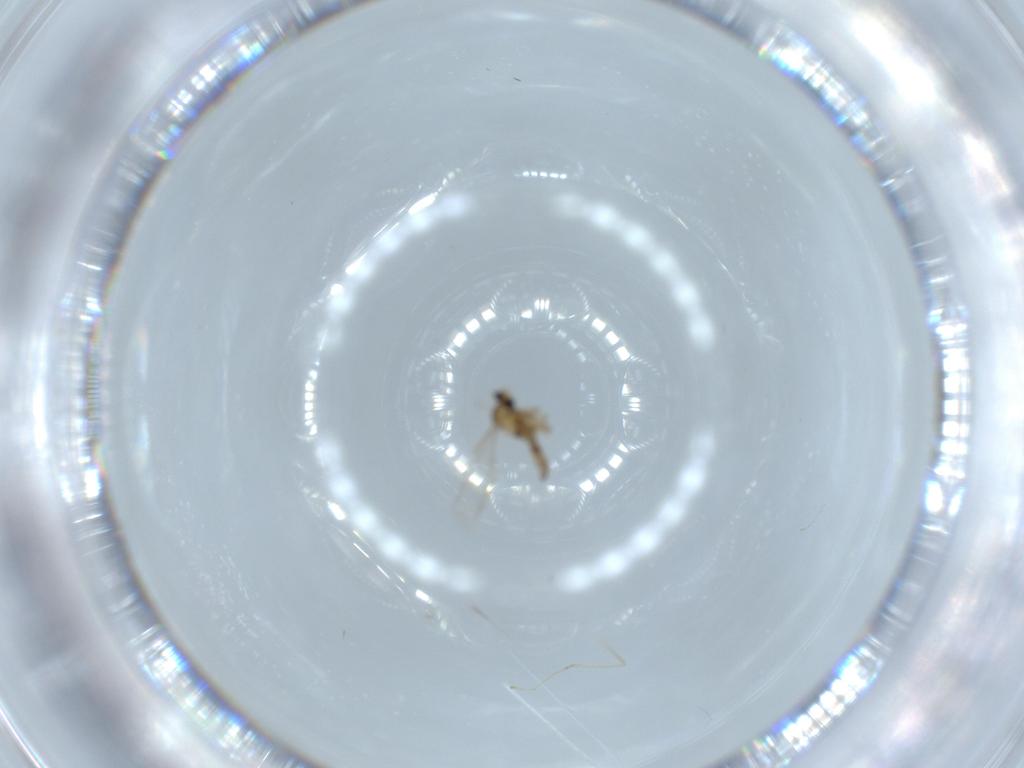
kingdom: Animalia
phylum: Arthropoda
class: Insecta
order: Diptera
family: Cecidomyiidae
